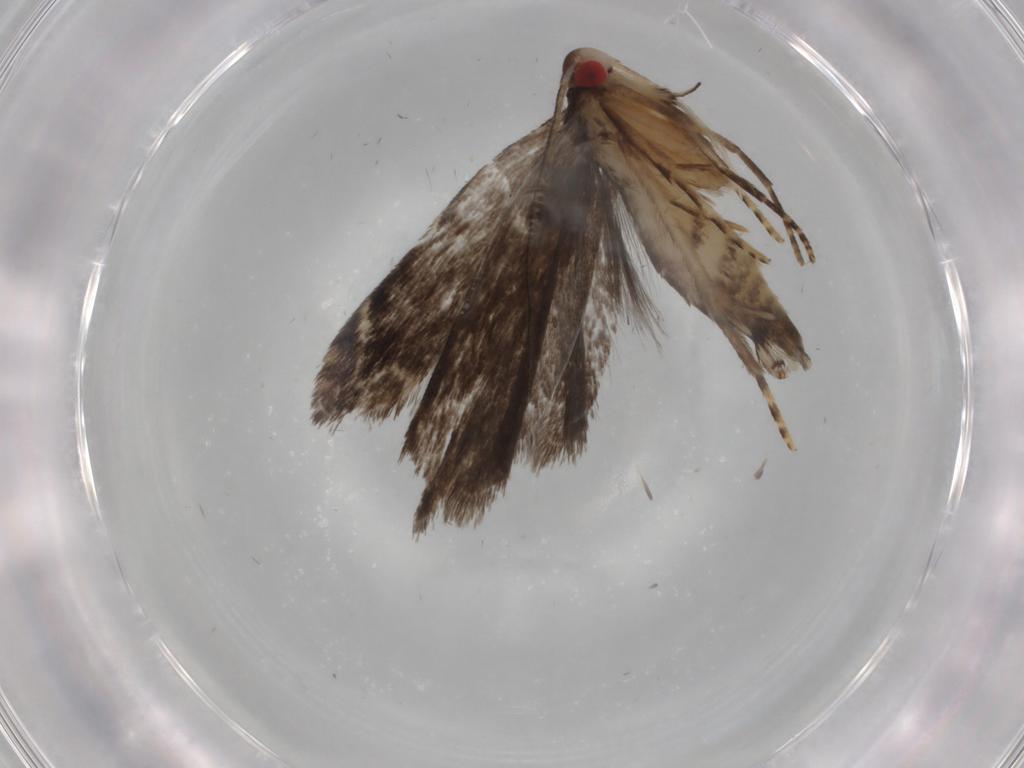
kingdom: Animalia
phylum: Arthropoda
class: Insecta
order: Lepidoptera
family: Gelechiidae
